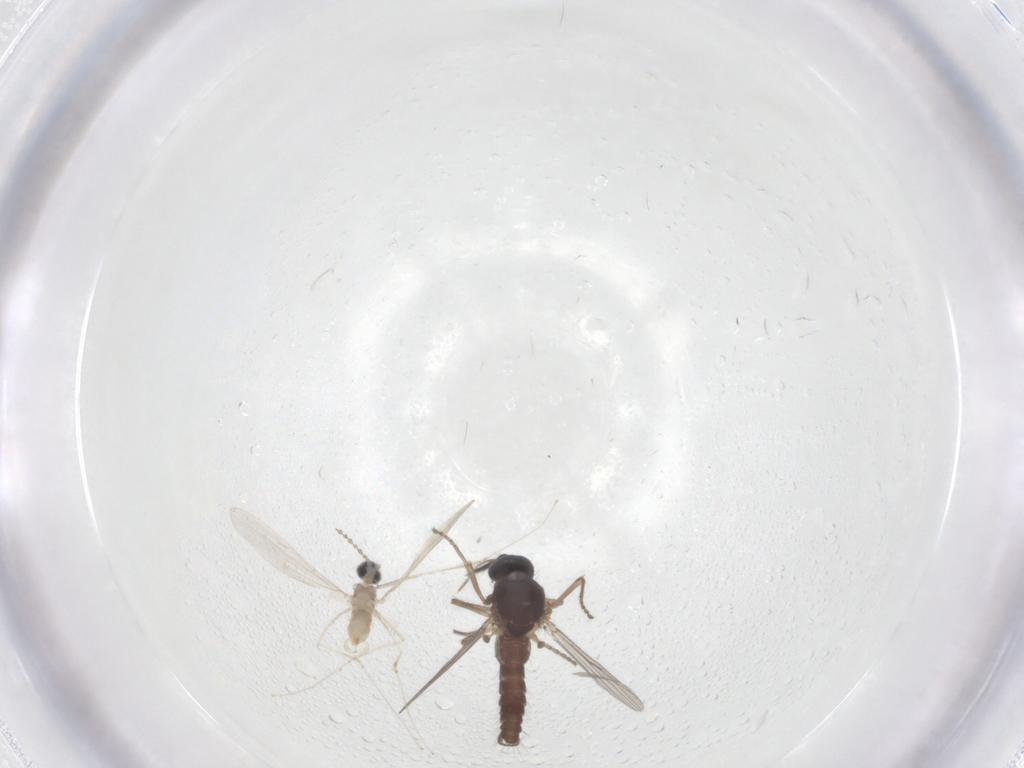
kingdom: Animalia
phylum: Arthropoda
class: Insecta
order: Diptera
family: Ceratopogonidae
